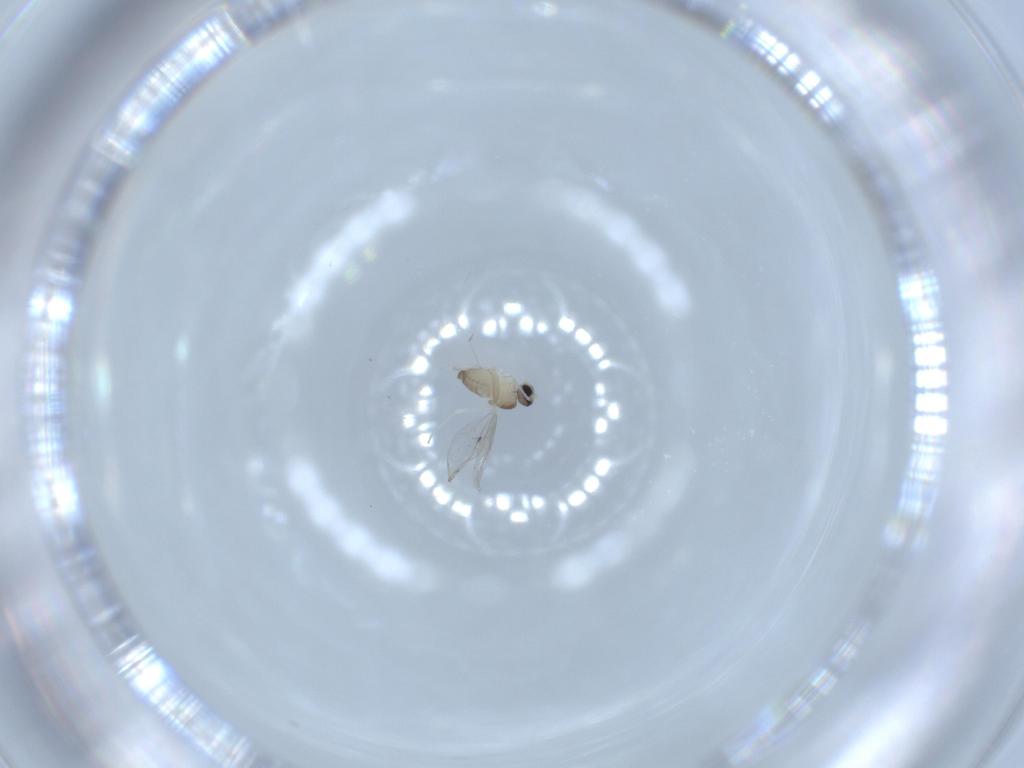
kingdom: Animalia
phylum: Arthropoda
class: Insecta
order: Diptera
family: Cecidomyiidae
